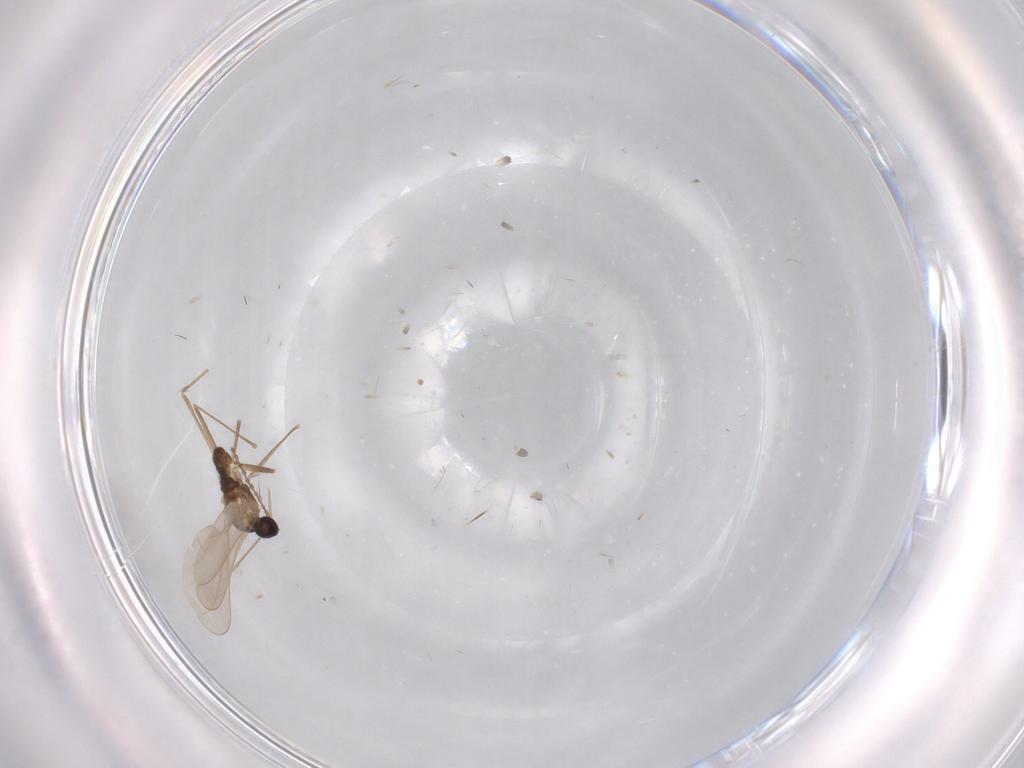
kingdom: Animalia
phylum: Arthropoda
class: Insecta
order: Diptera
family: Cecidomyiidae
